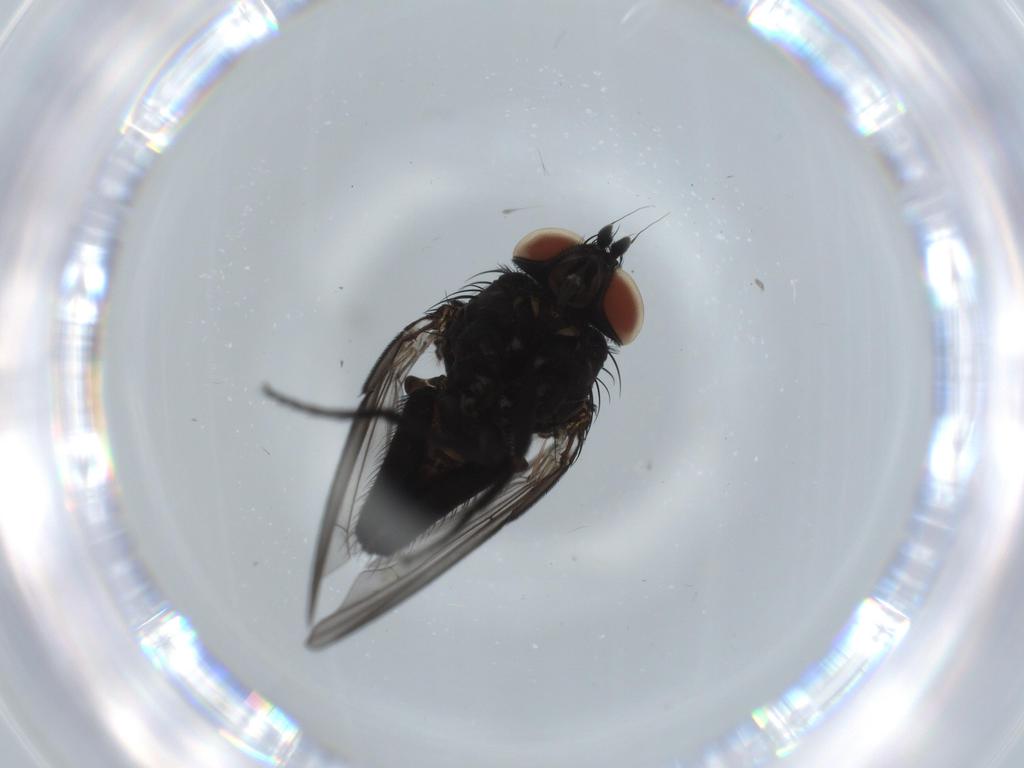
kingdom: Animalia
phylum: Arthropoda
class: Insecta
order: Diptera
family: Milichiidae
